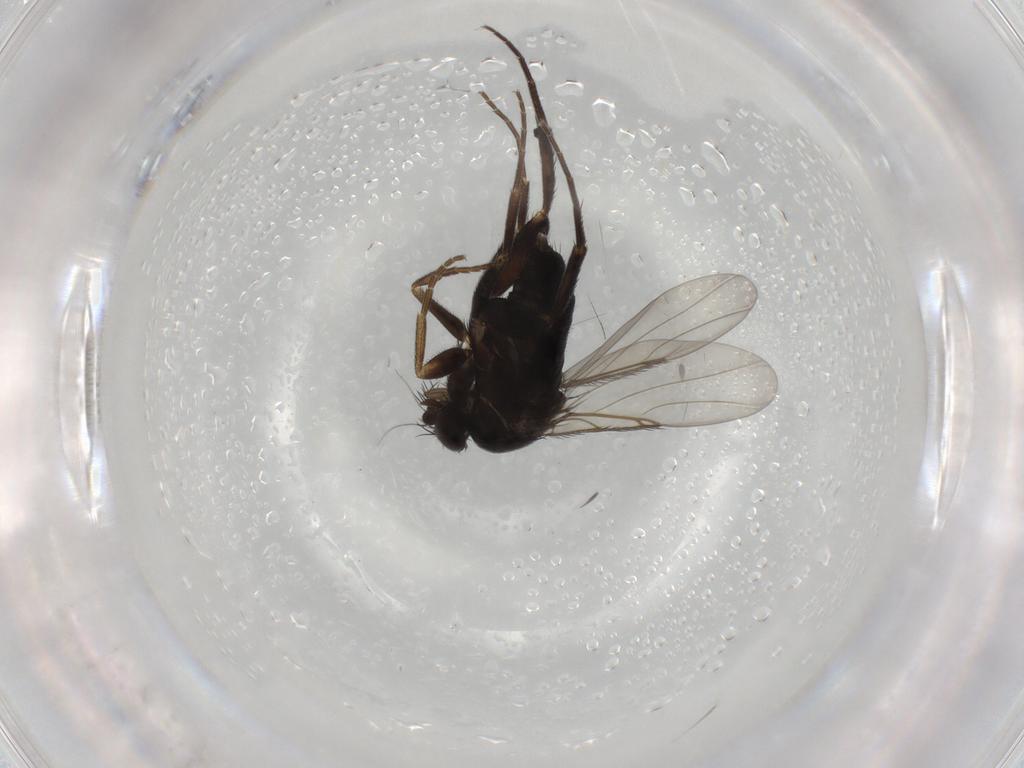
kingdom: Animalia
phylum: Arthropoda
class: Insecta
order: Diptera
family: Phoridae
